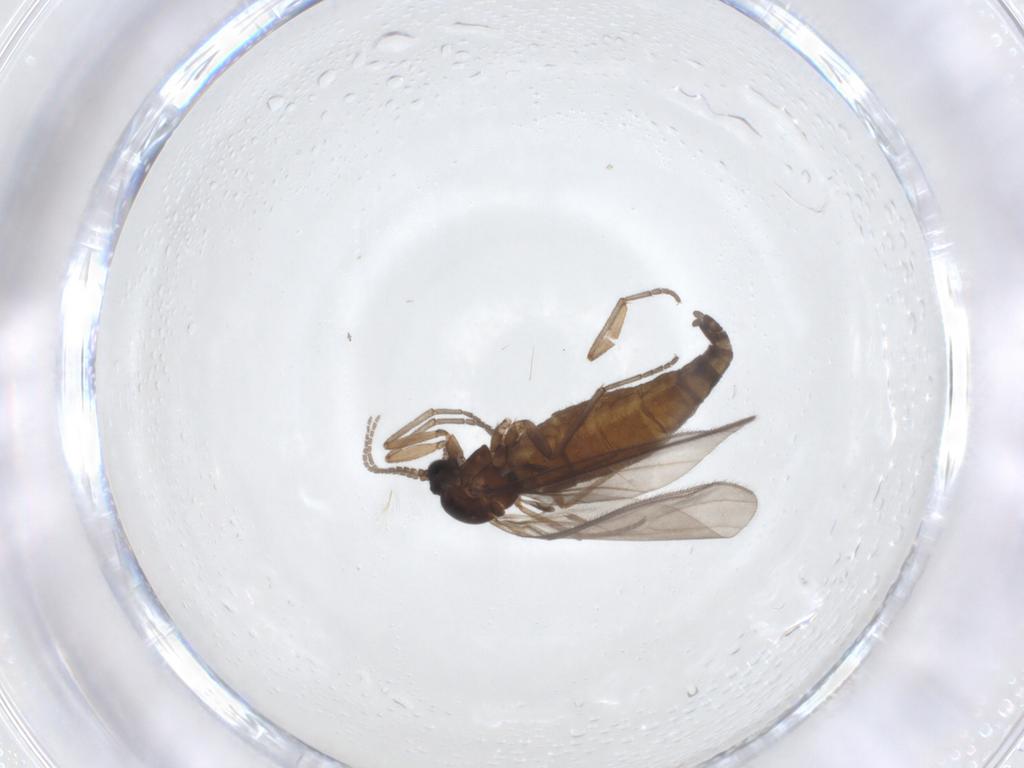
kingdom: Animalia
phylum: Arthropoda
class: Insecta
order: Diptera
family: Sciaridae
